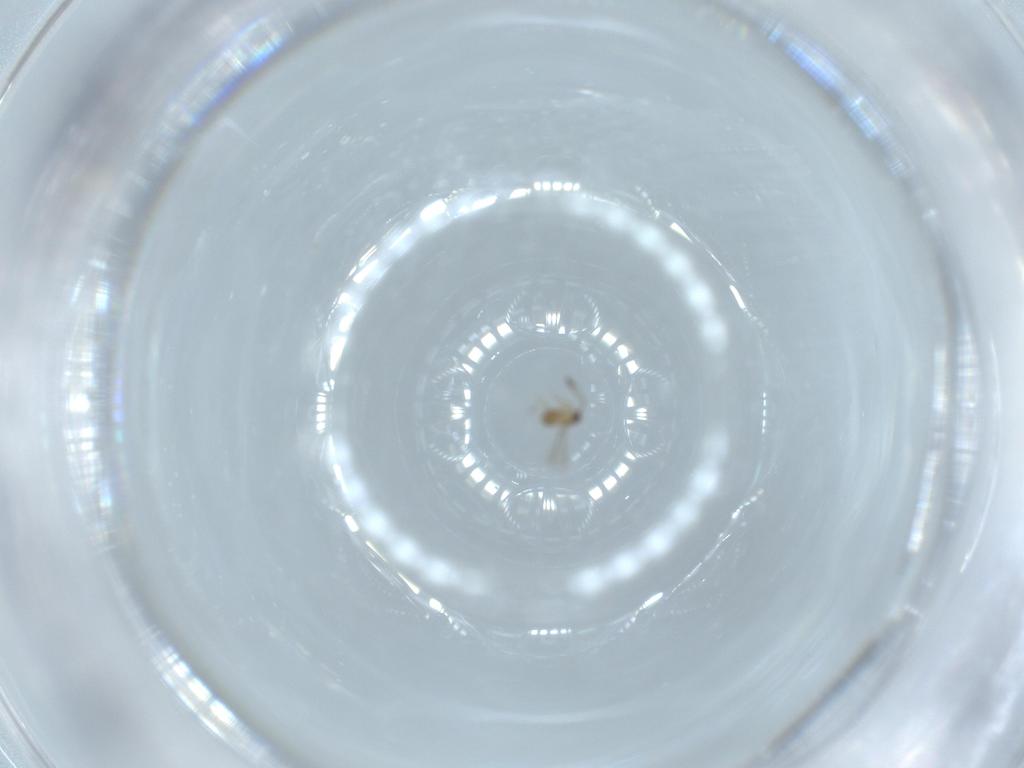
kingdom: Animalia
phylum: Arthropoda
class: Insecta
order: Hymenoptera
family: Mymaridae
